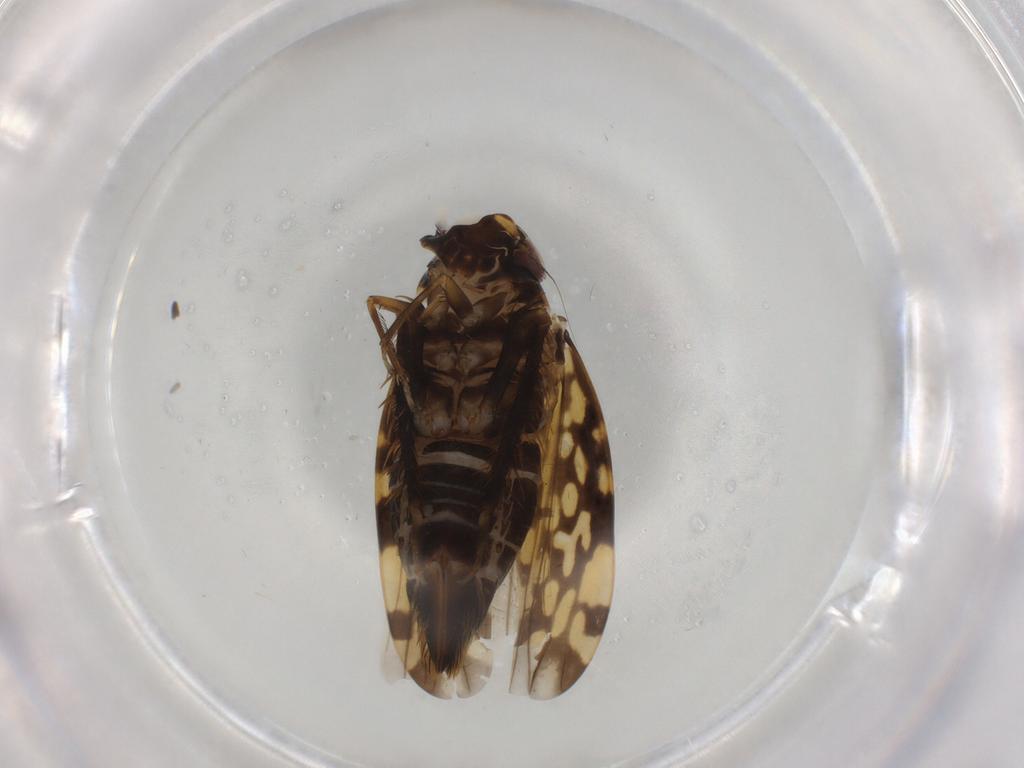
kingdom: Animalia
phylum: Arthropoda
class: Insecta
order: Hemiptera
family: Cicadellidae
